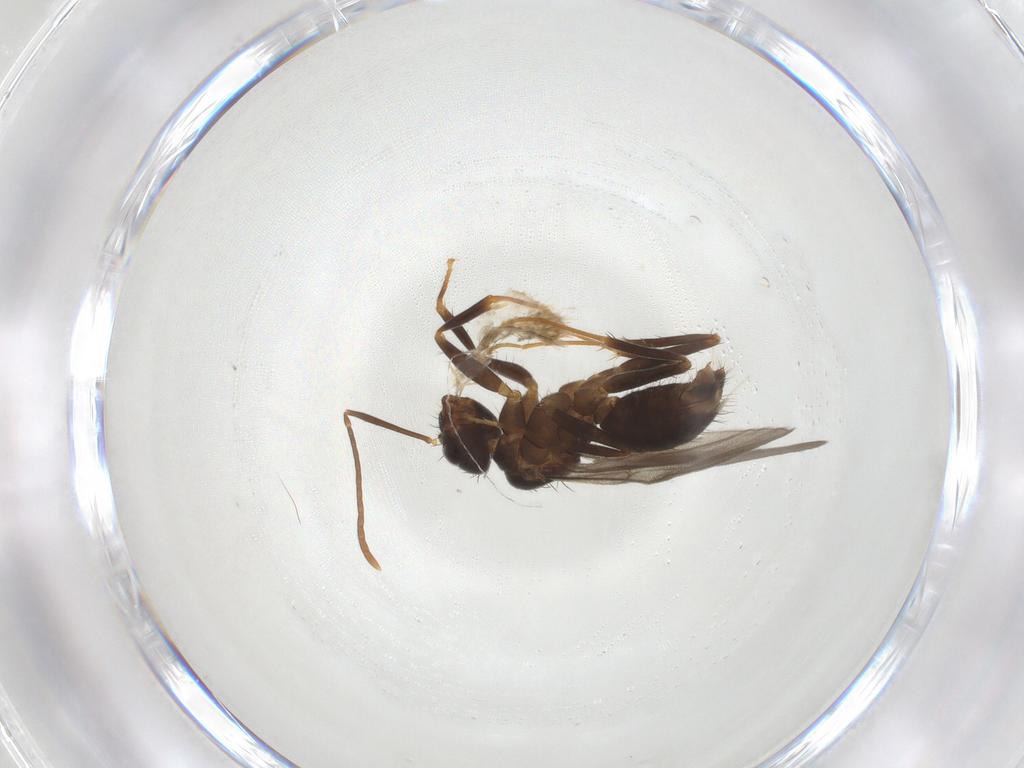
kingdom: Animalia
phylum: Arthropoda
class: Insecta
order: Hymenoptera
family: Formicidae
